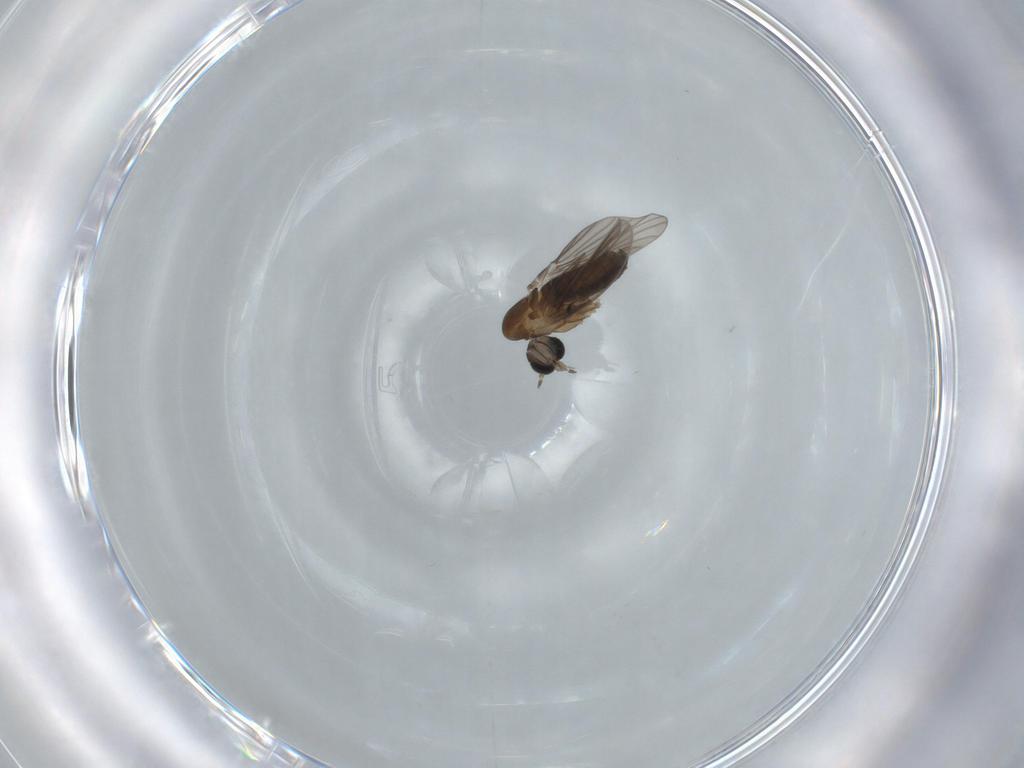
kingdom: Animalia
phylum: Arthropoda
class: Insecta
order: Diptera
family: Psychodidae
